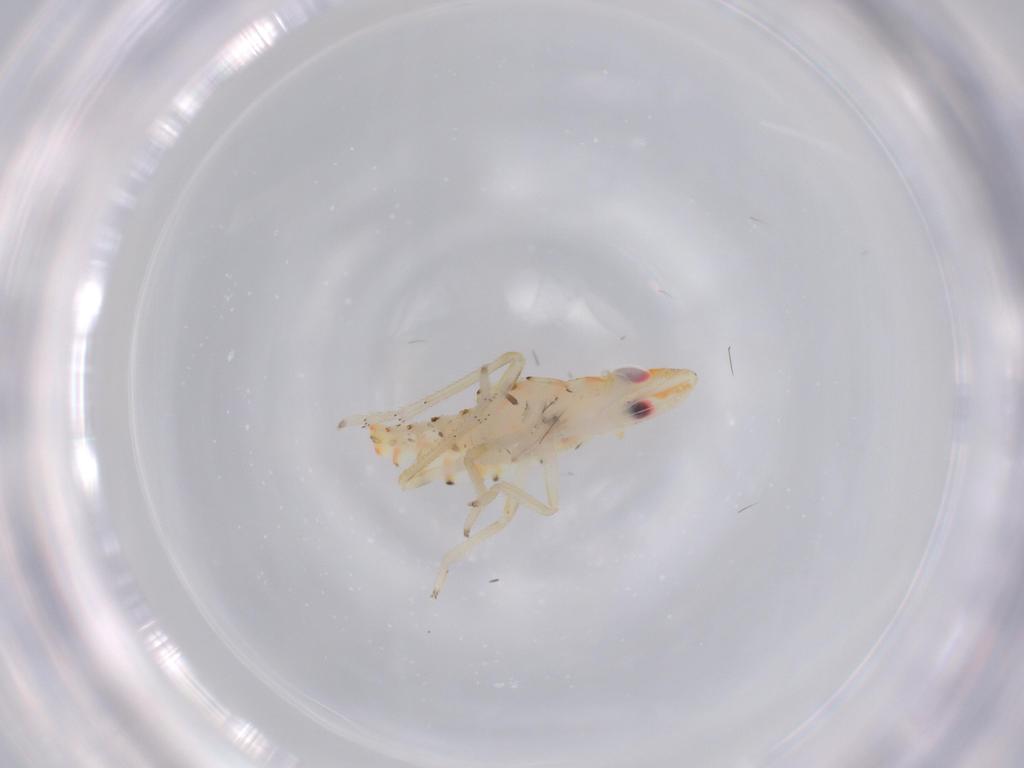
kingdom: Animalia
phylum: Arthropoda
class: Insecta
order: Hemiptera
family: Tropiduchidae
